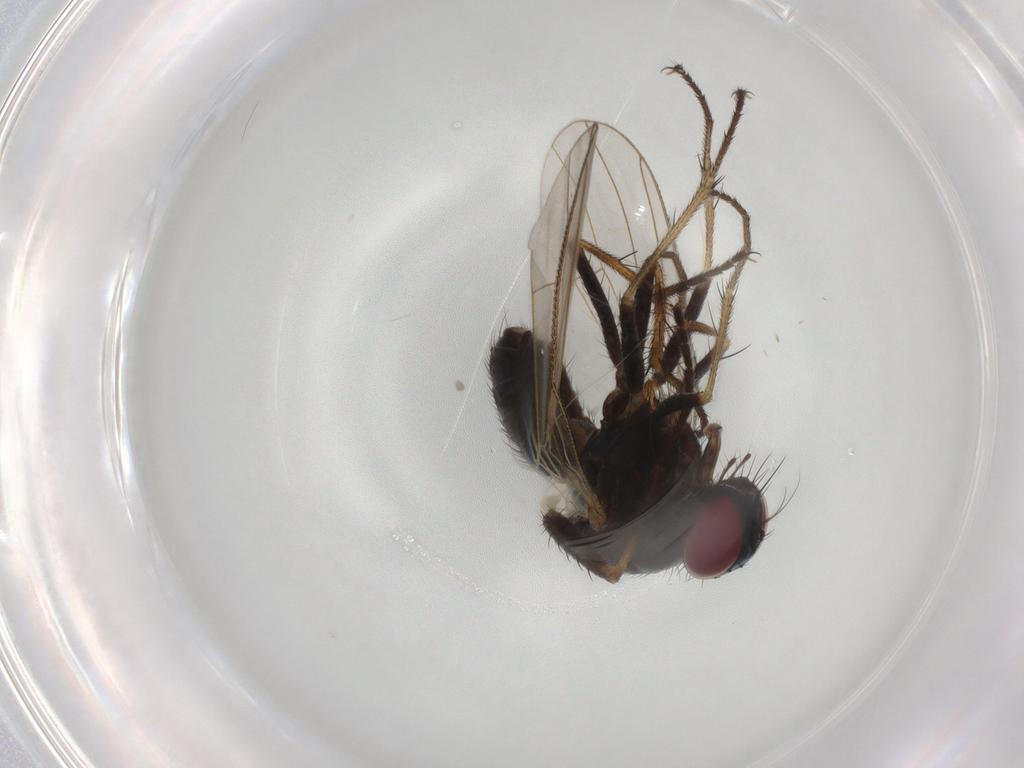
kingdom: Animalia
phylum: Arthropoda
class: Insecta
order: Diptera
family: Anthomyiidae
